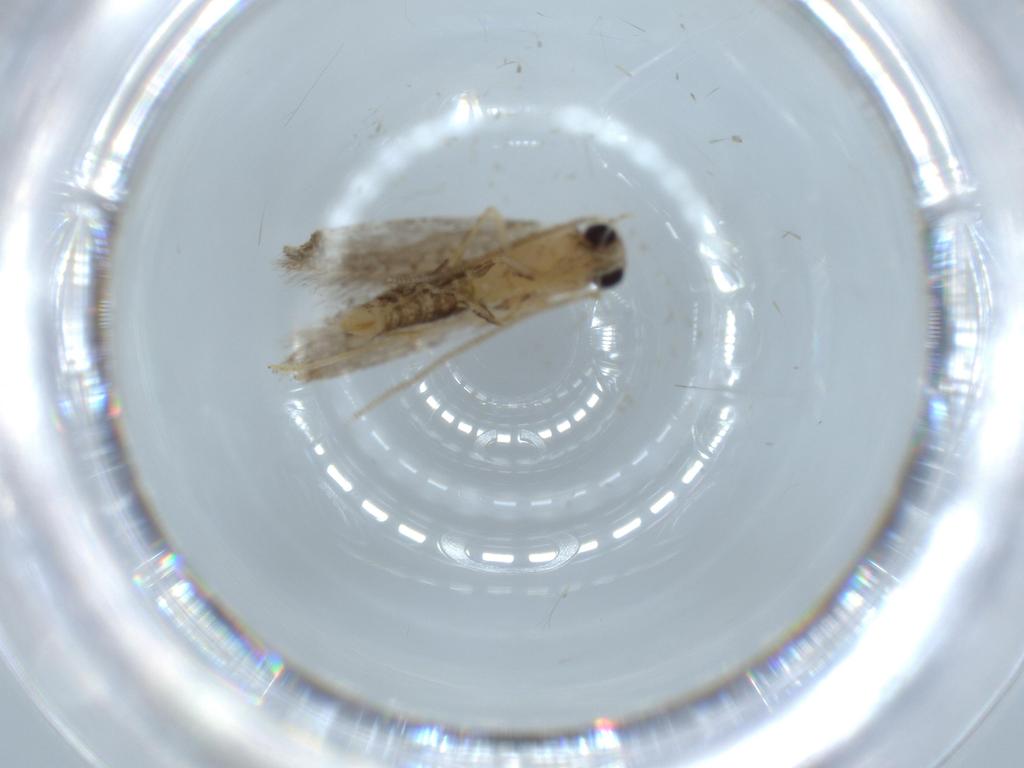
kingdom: Animalia
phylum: Arthropoda
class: Insecta
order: Lepidoptera
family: Tineidae
